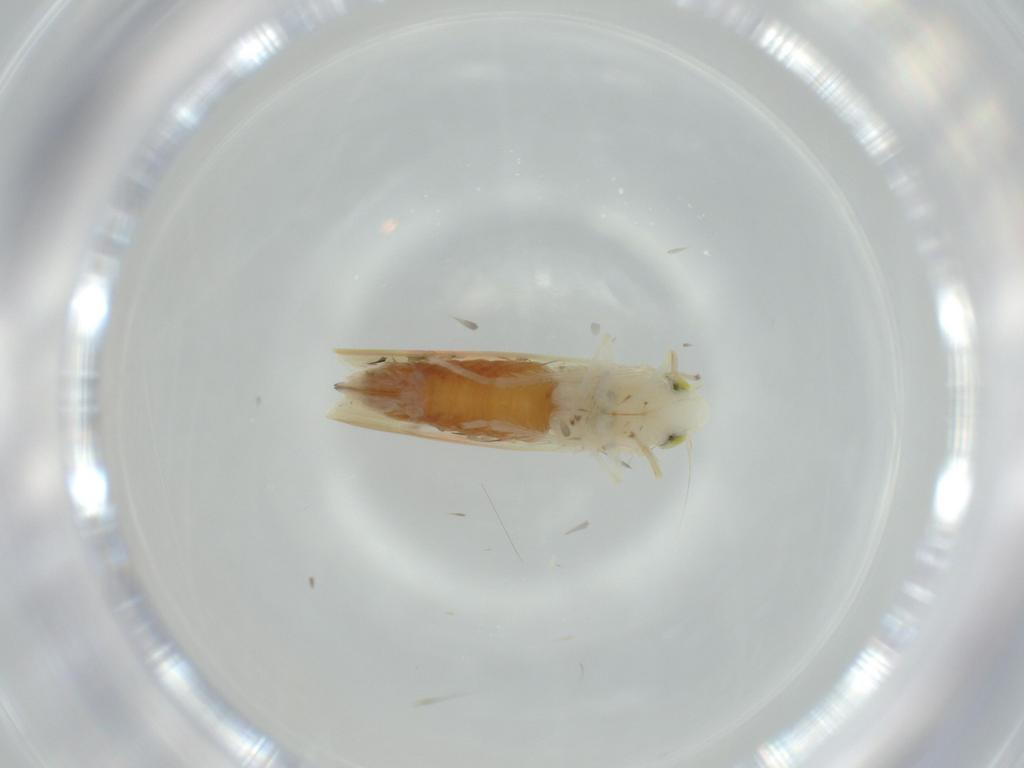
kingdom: Animalia
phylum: Arthropoda
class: Insecta
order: Hemiptera
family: Cicadellidae
